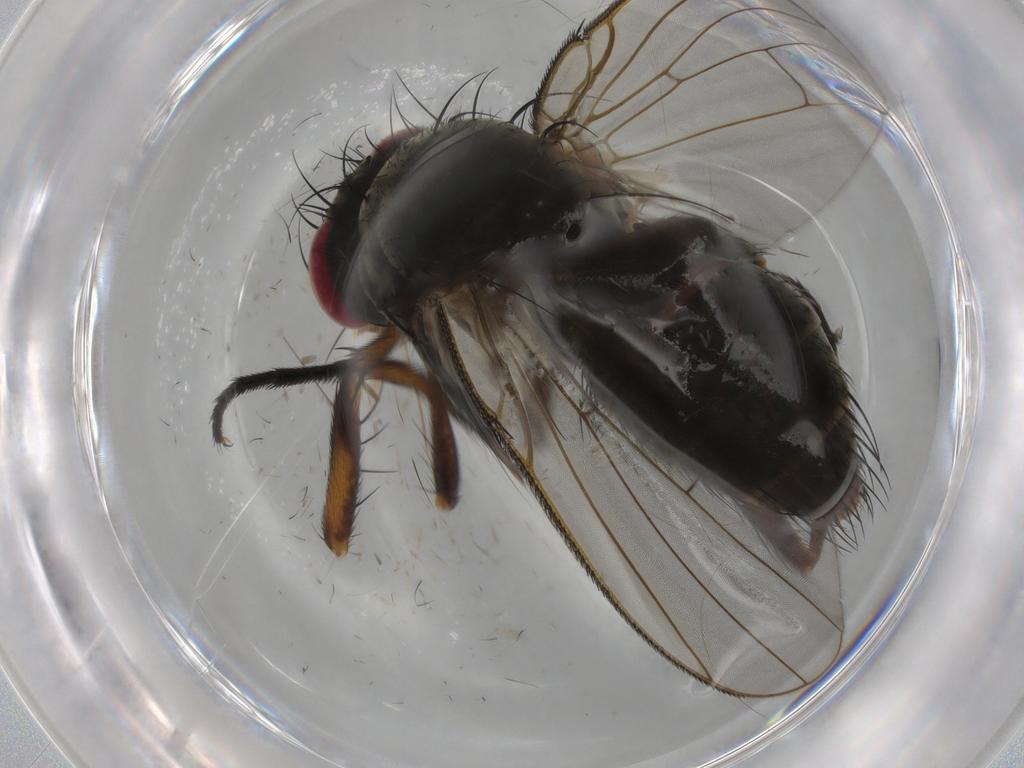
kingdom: Animalia
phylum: Arthropoda
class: Insecta
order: Diptera
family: Muscidae
